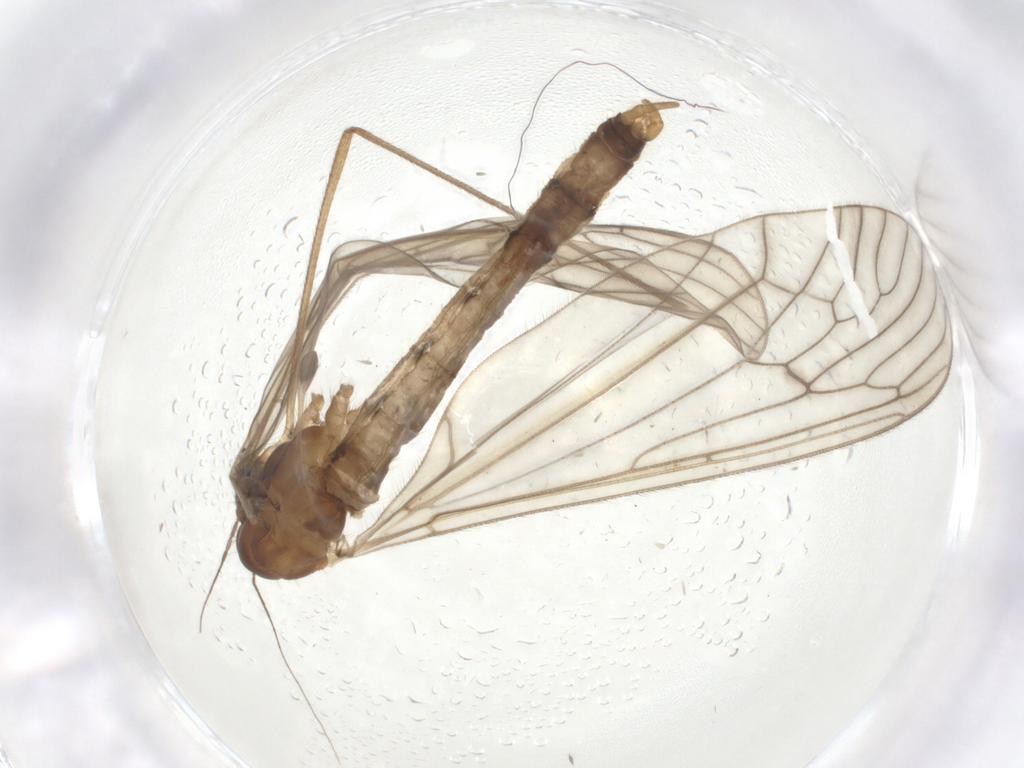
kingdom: Animalia
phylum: Arthropoda
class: Insecta
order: Diptera
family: Trichoceridae
